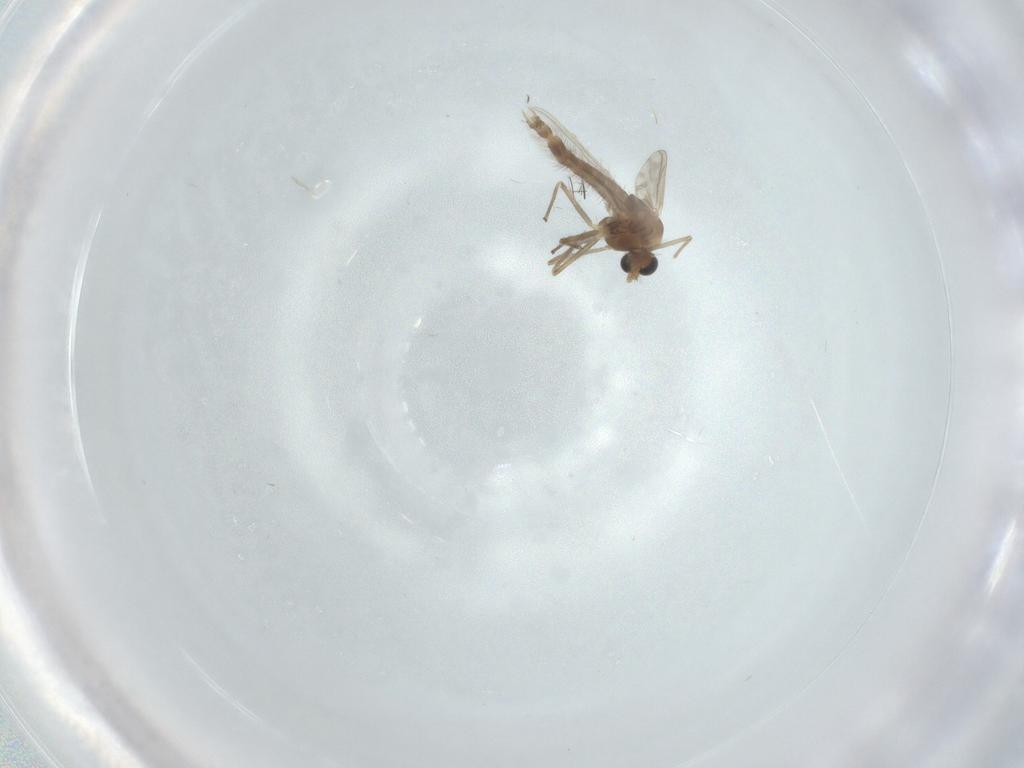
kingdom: Animalia
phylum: Arthropoda
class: Insecta
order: Diptera
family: Chironomidae
